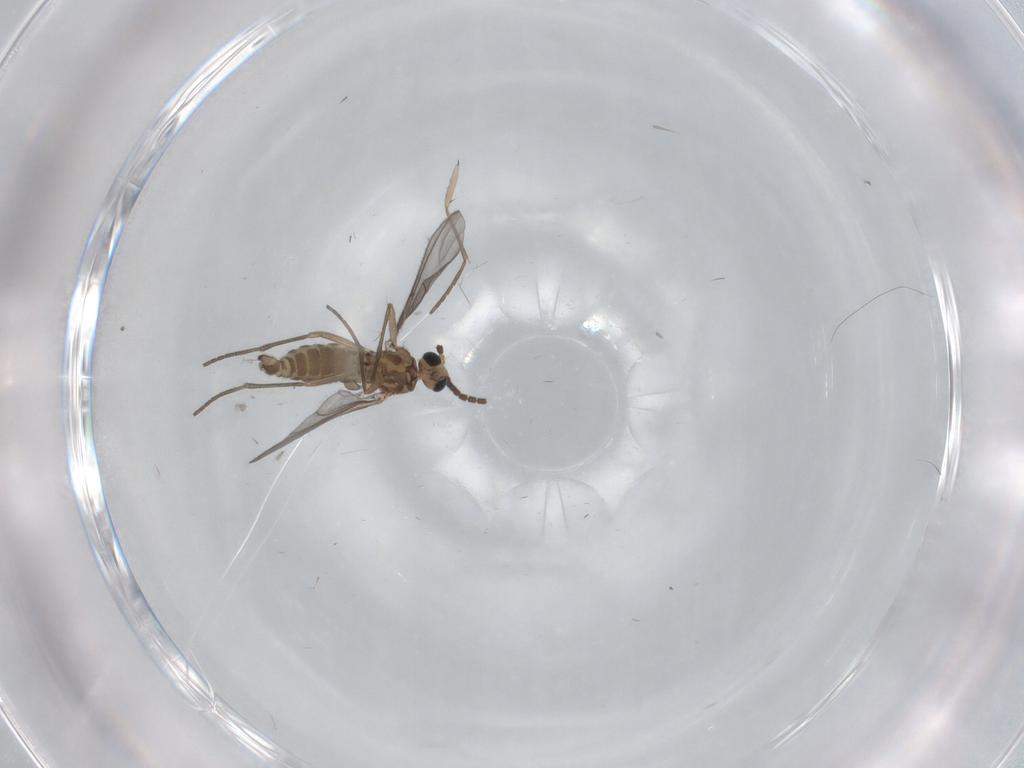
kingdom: Animalia
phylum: Arthropoda
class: Insecta
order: Diptera
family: Sciaridae
